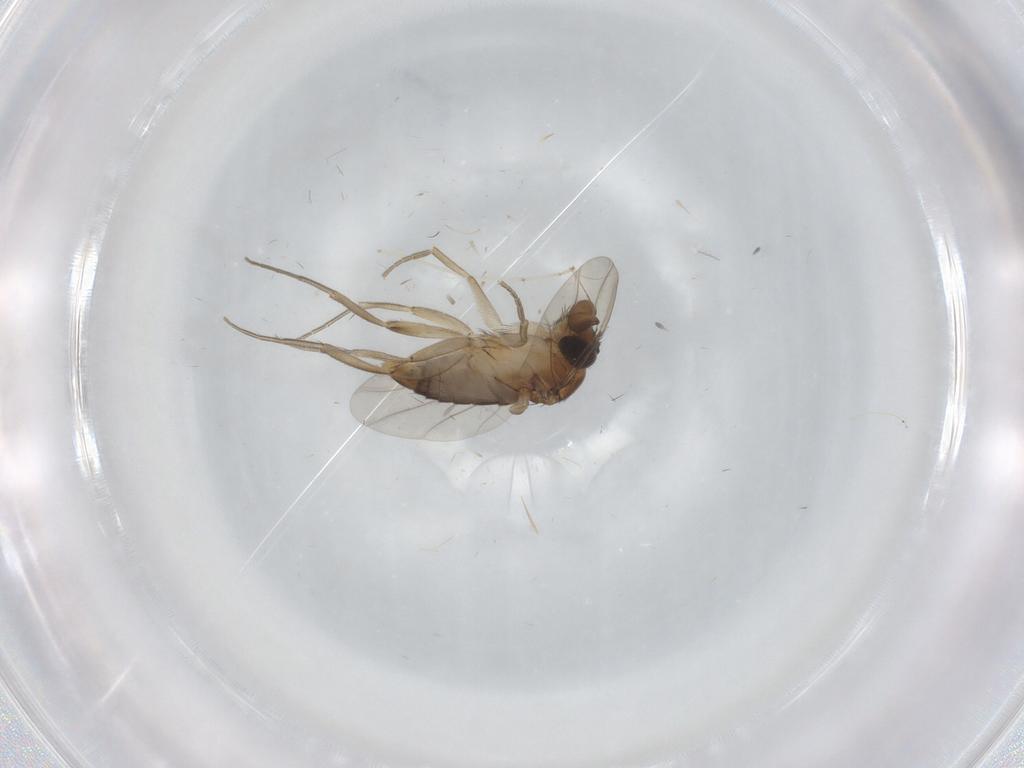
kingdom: Animalia
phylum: Arthropoda
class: Insecta
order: Diptera
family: Phoridae
